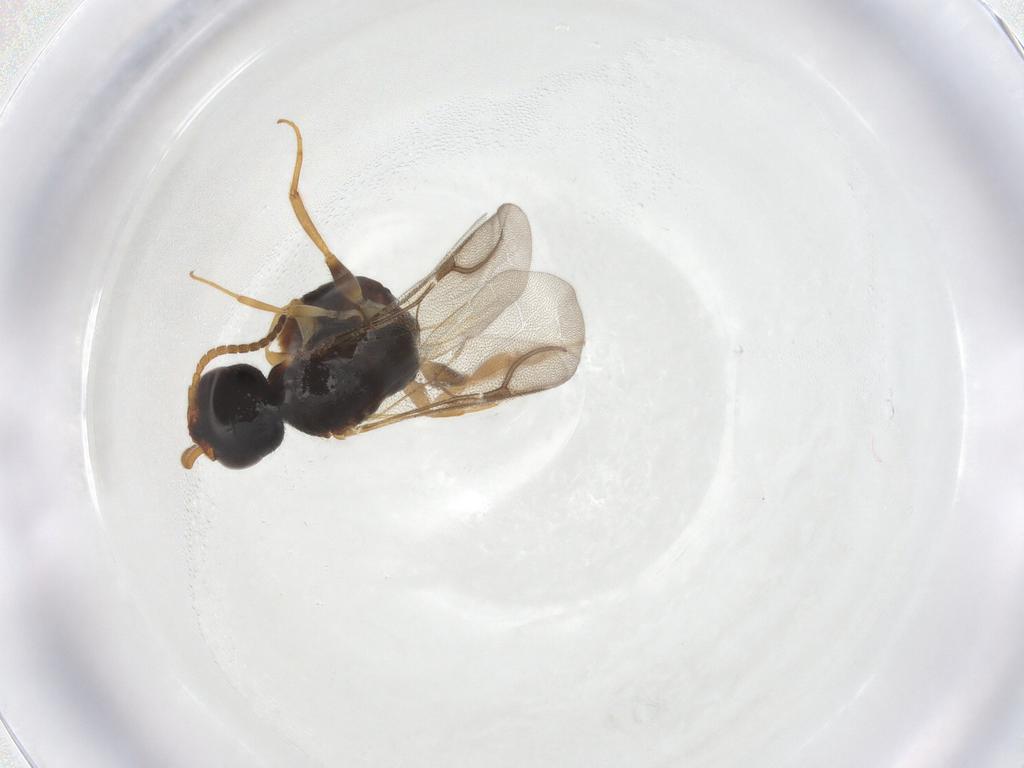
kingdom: Animalia
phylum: Arthropoda
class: Insecta
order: Hymenoptera
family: Bethylidae
